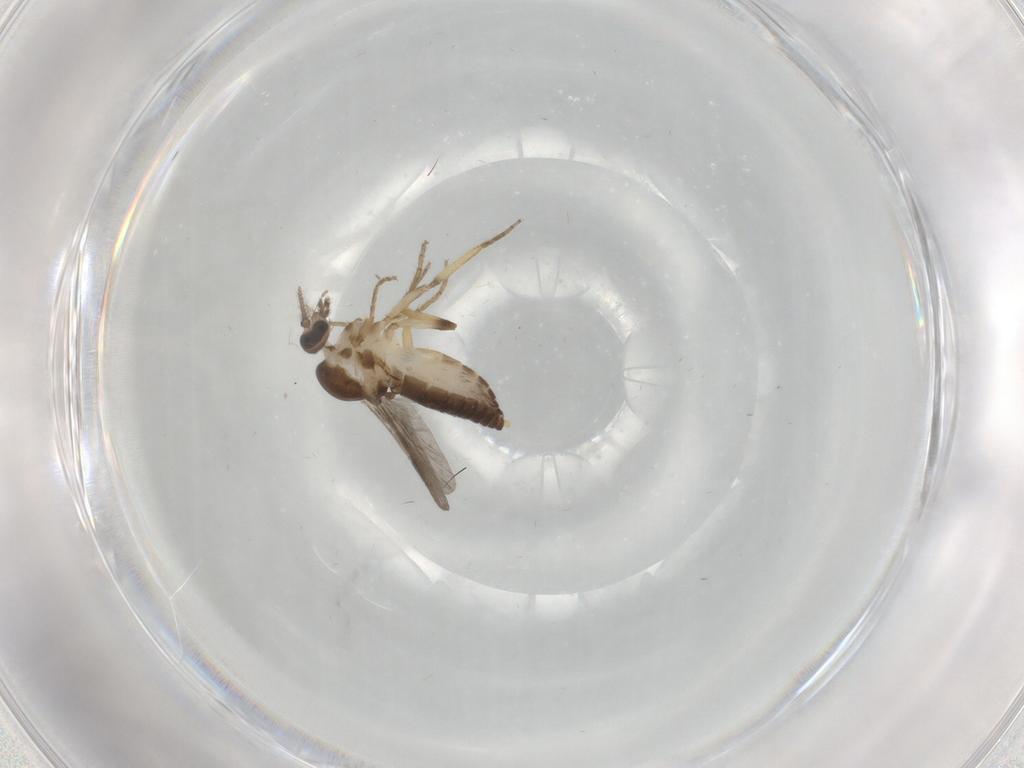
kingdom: Animalia
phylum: Arthropoda
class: Insecta
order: Diptera
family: Ceratopogonidae
